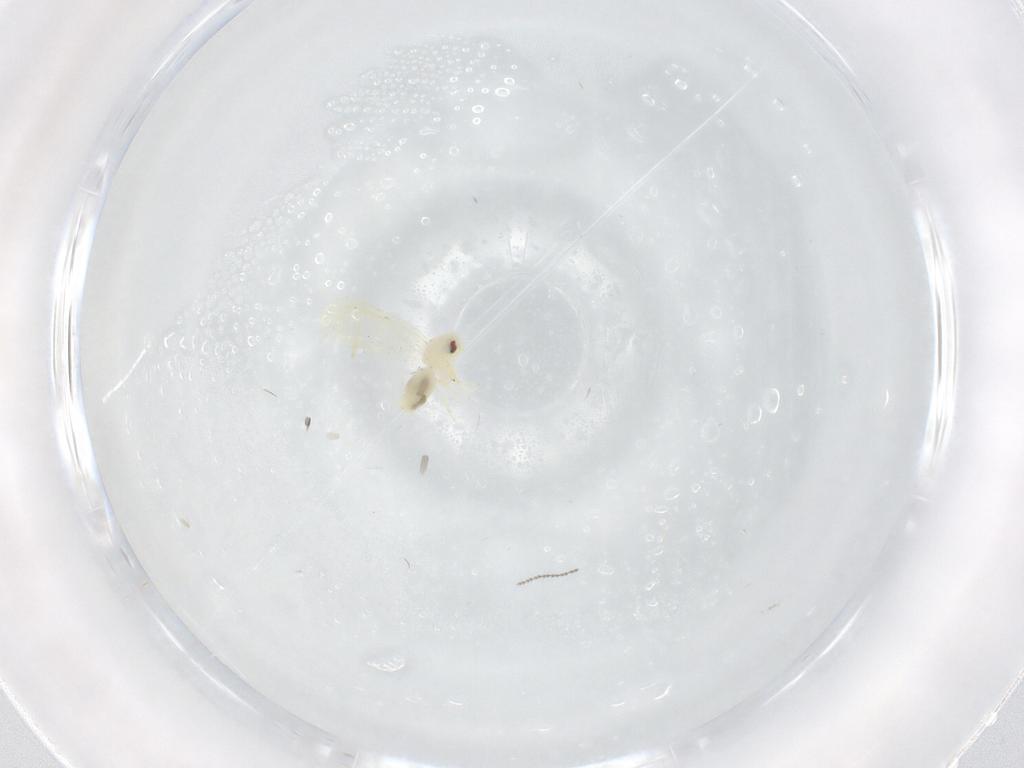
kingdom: Animalia
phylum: Arthropoda
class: Insecta
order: Diptera
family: Cecidomyiidae
